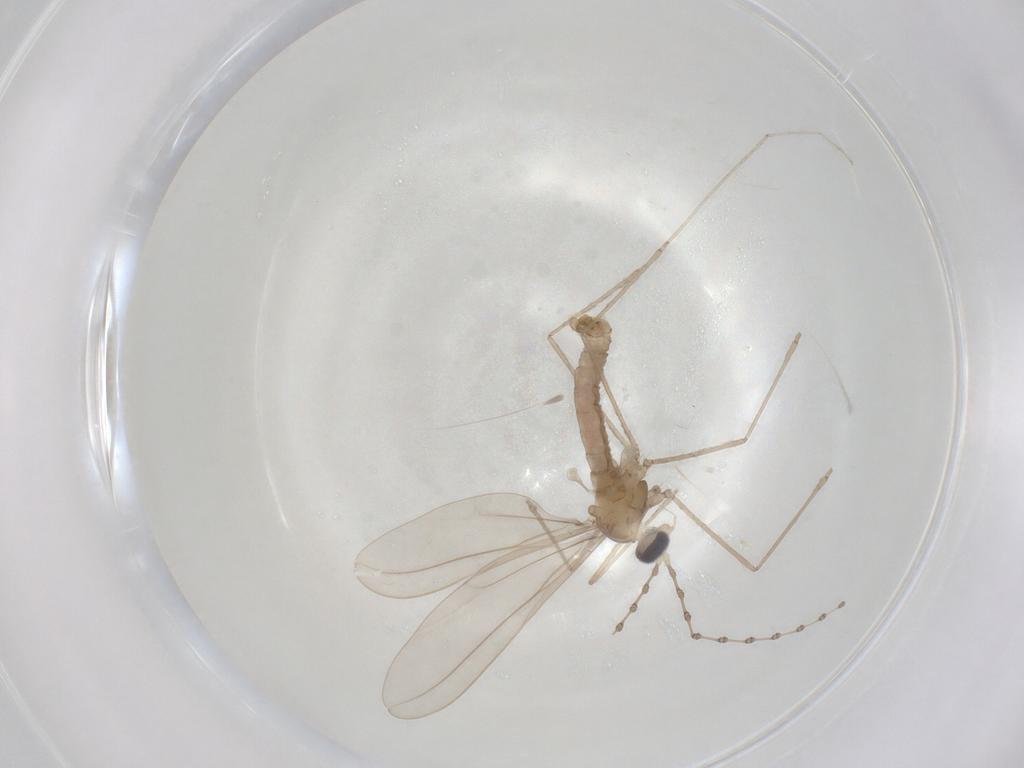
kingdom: Animalia
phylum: Arthropoda
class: Insecta
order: Diptera
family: Cecidomyiidae
